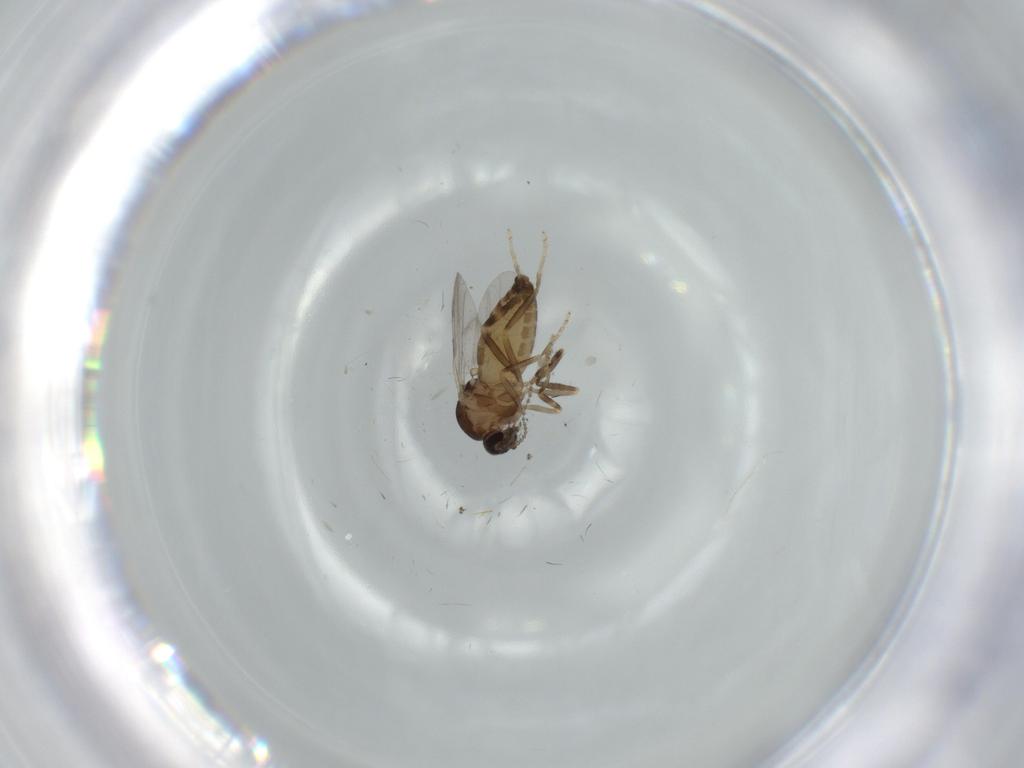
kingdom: Animalia
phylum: Arthropoda
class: Insecta
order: Diptera
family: Ceratopogonidae
